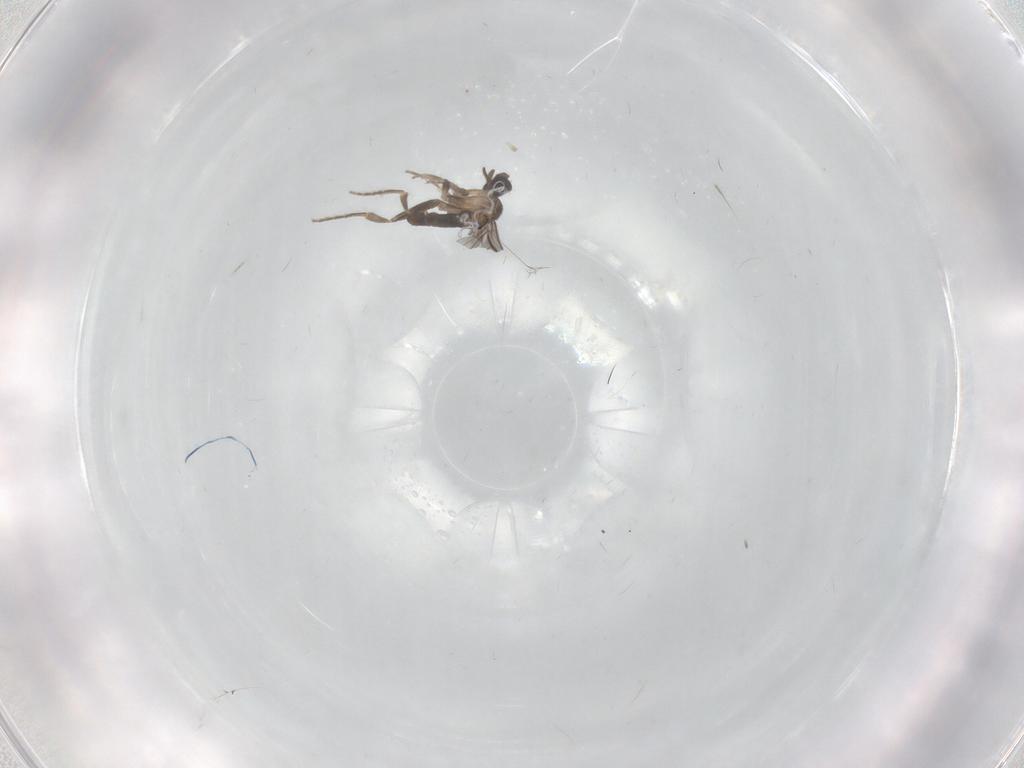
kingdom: Animalia
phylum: Arthropoda
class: Insecta
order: Diptera
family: Phoridae
